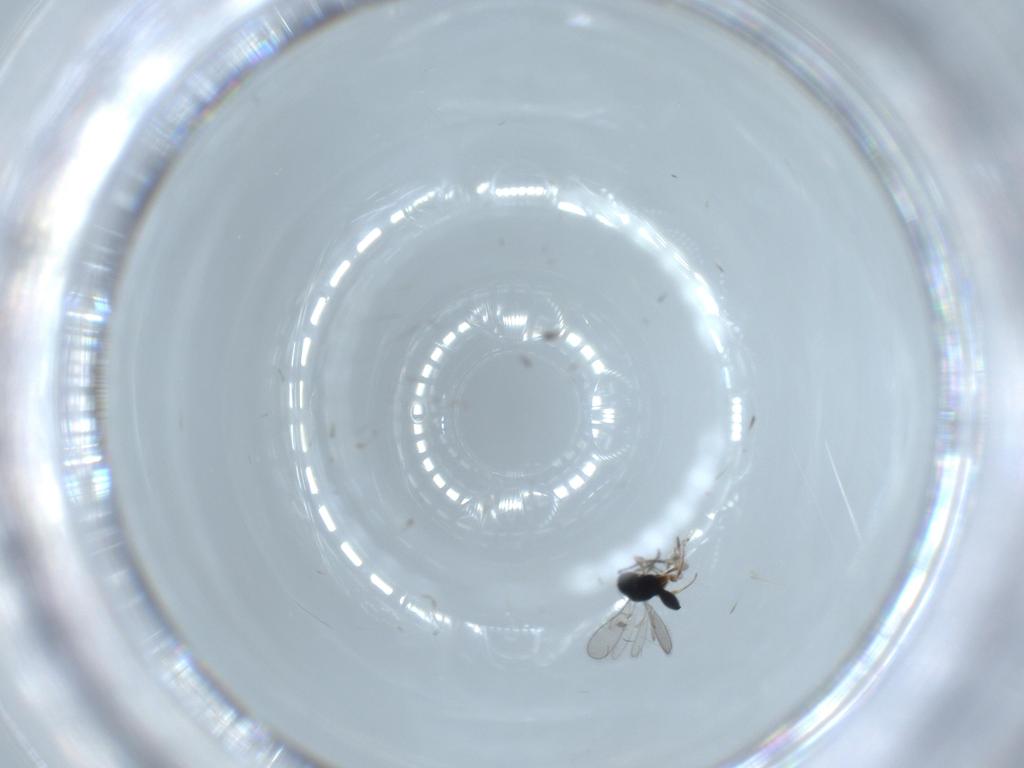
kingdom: Animalia
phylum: Arthropoda
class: Insecta
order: Hymenoptera
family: Scelionidae
